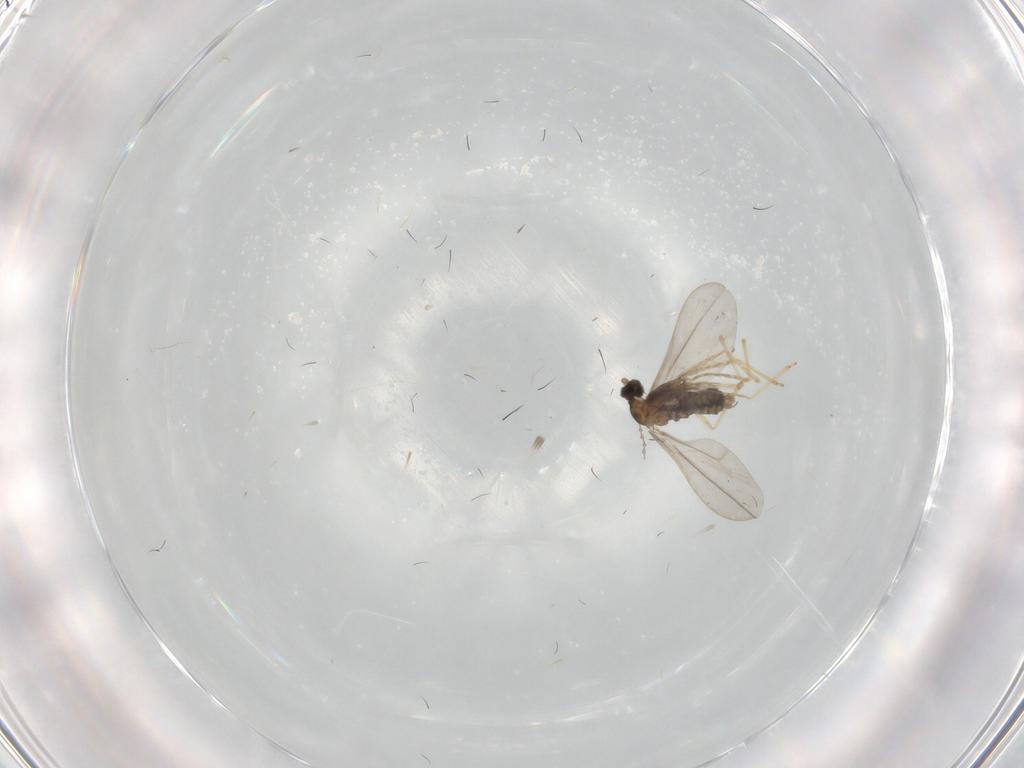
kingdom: Animalia
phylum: Arthropoda
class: Insecta
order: Diptera
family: Cecidomyiidae
